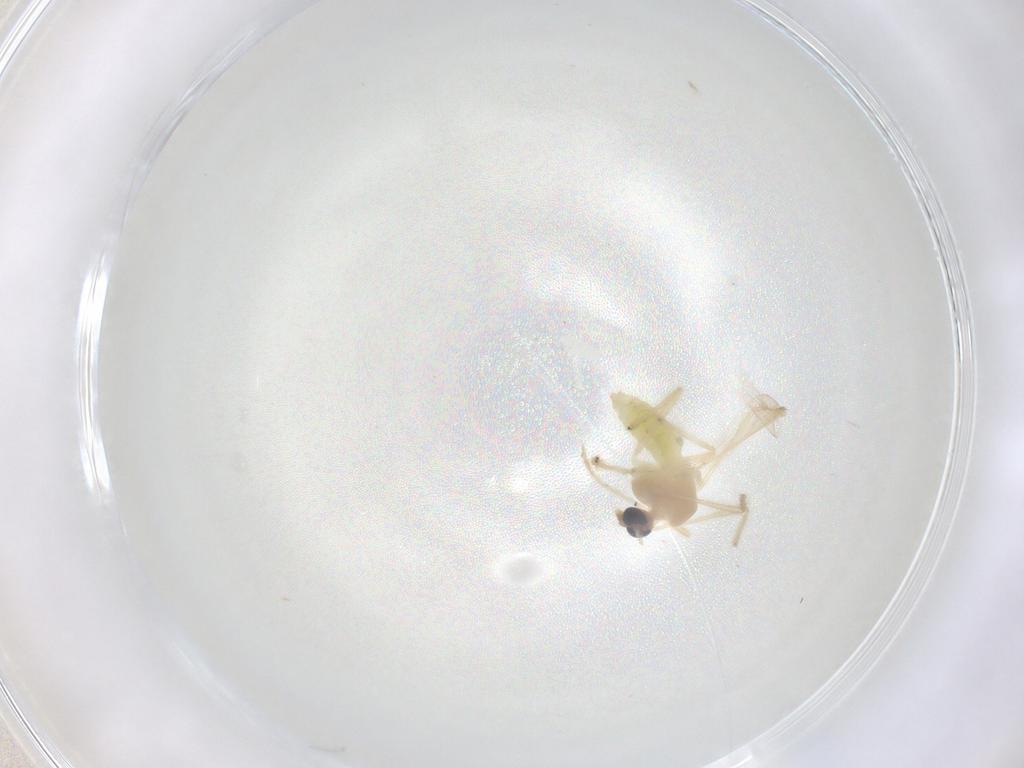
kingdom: Animalia
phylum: Arthropoda
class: Insecta
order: Diptera
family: Chironomidae
